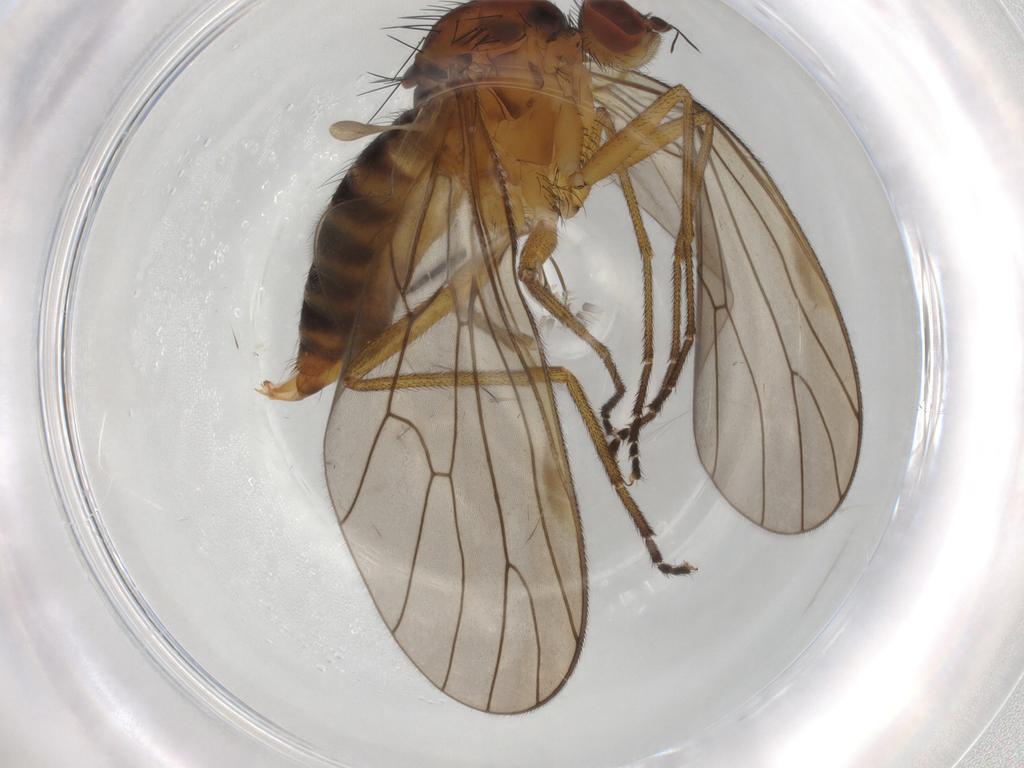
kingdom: Animalia
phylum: Arthropoda
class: Insecta
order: Diptera
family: Brachystomatidae
